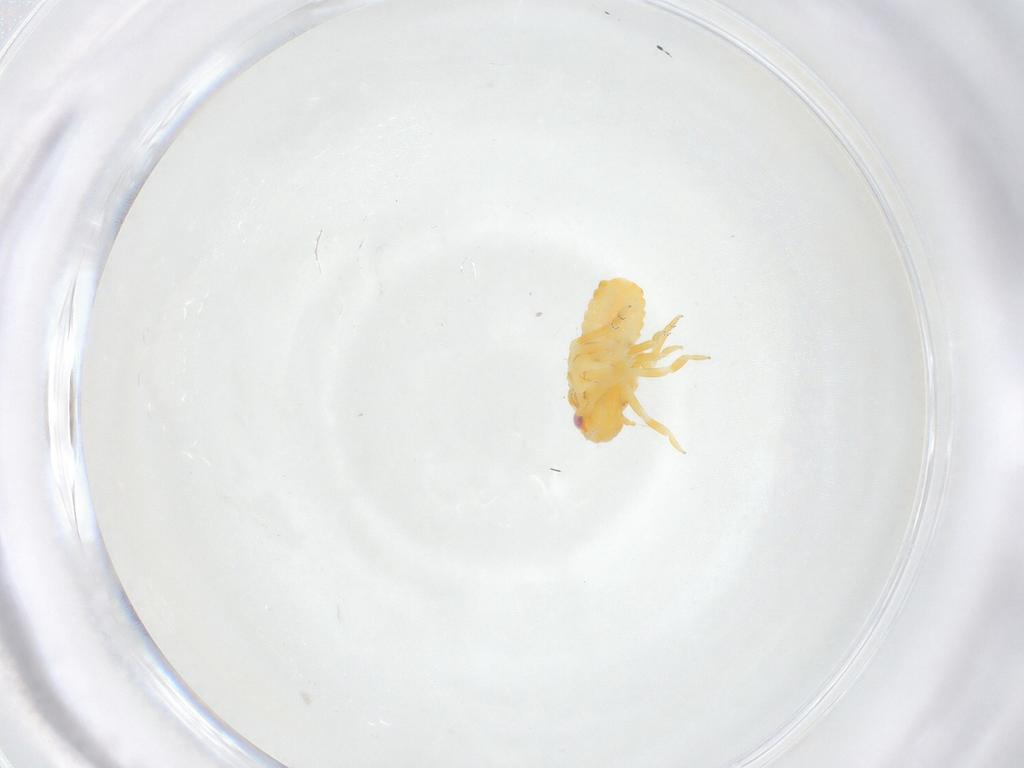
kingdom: Animalia
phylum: Arthropoda
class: Insecta
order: Hemiptera
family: Fulgoroidea_incertae_sedis
